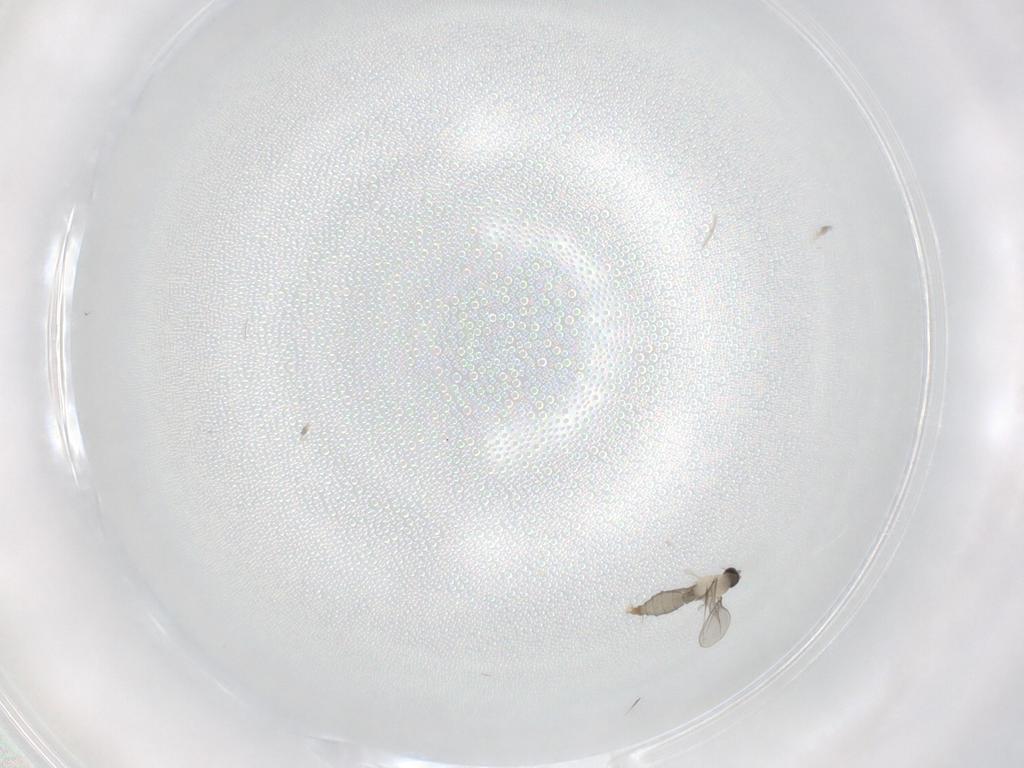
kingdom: Animalia
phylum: Arthropoda
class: Insecta
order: Diptera
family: Cecidomyiidae
